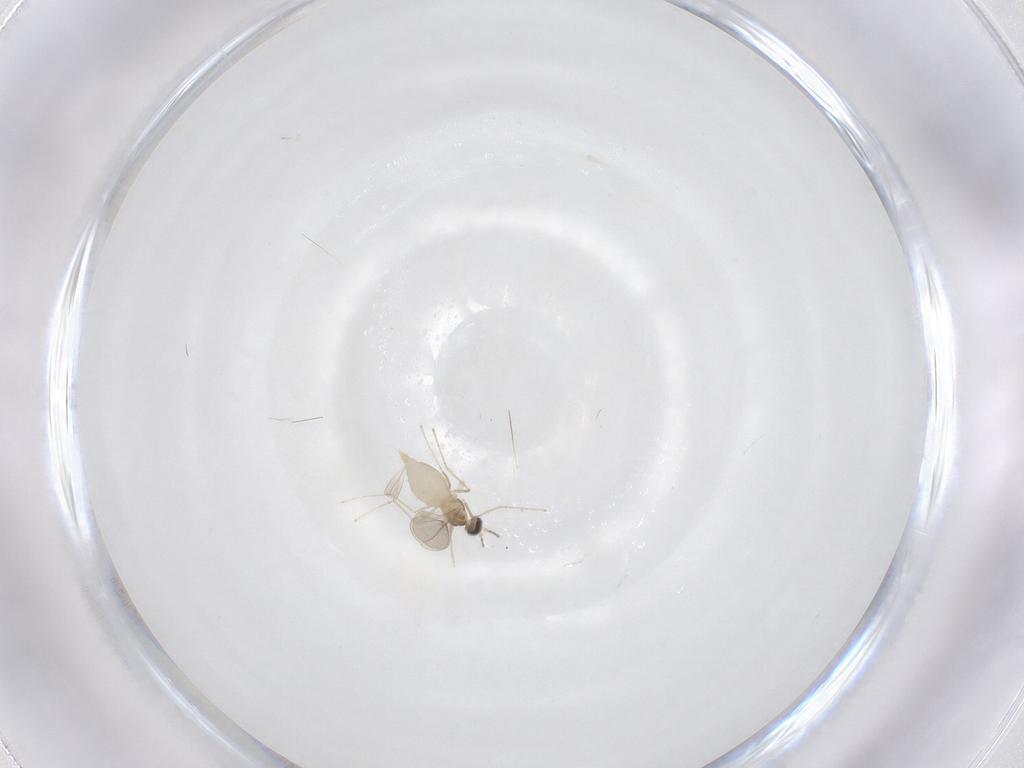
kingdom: Animalia
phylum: Arthropoda
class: Insecta
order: Diptera
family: Cecidomyiidae
